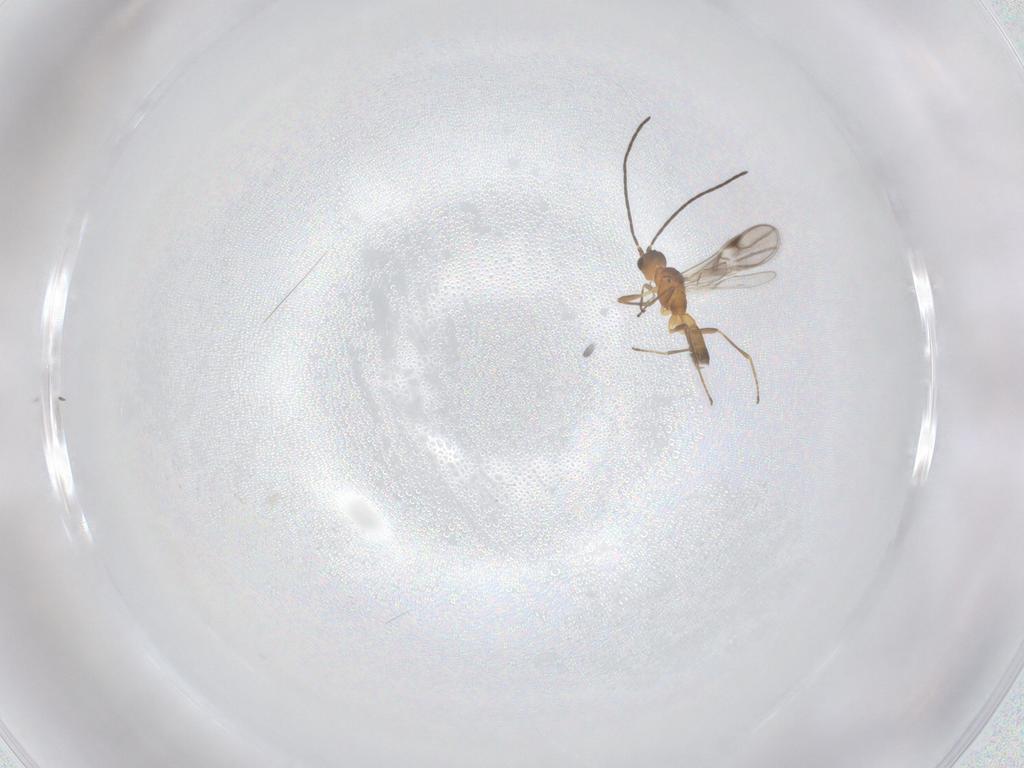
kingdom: Animalia
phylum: Arthropoda
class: Insecta
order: Hymenoptera
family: Braconidae
